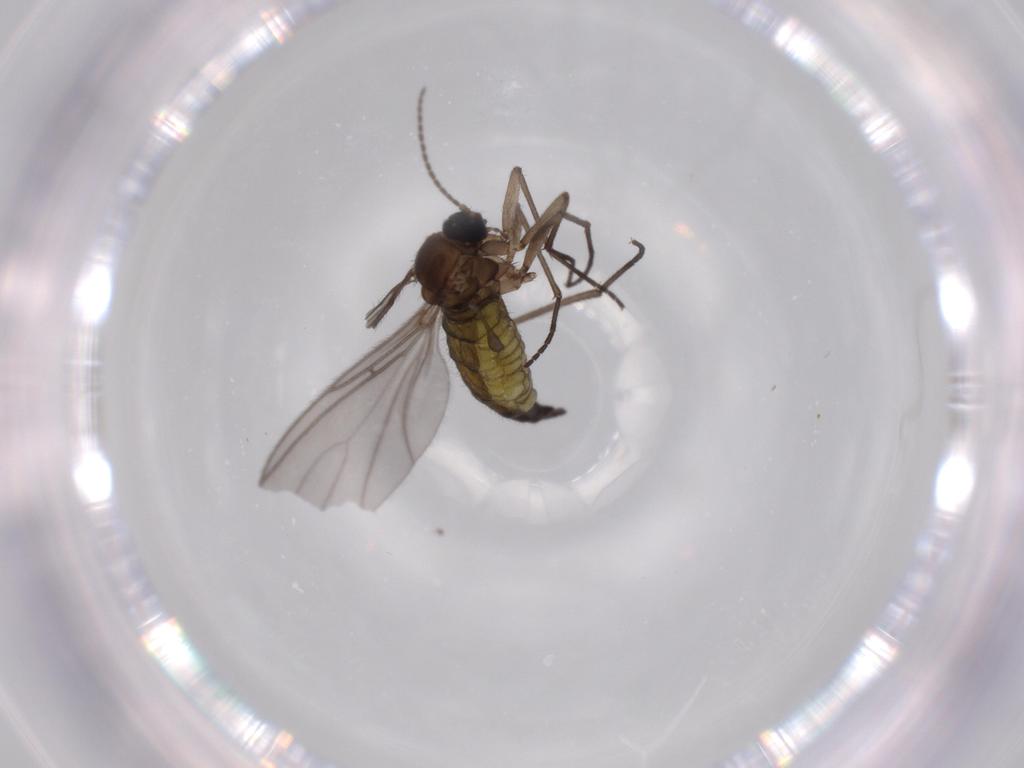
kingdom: Animalia
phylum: Arthropoda
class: Insecta
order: Diptera
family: Sciaridae
